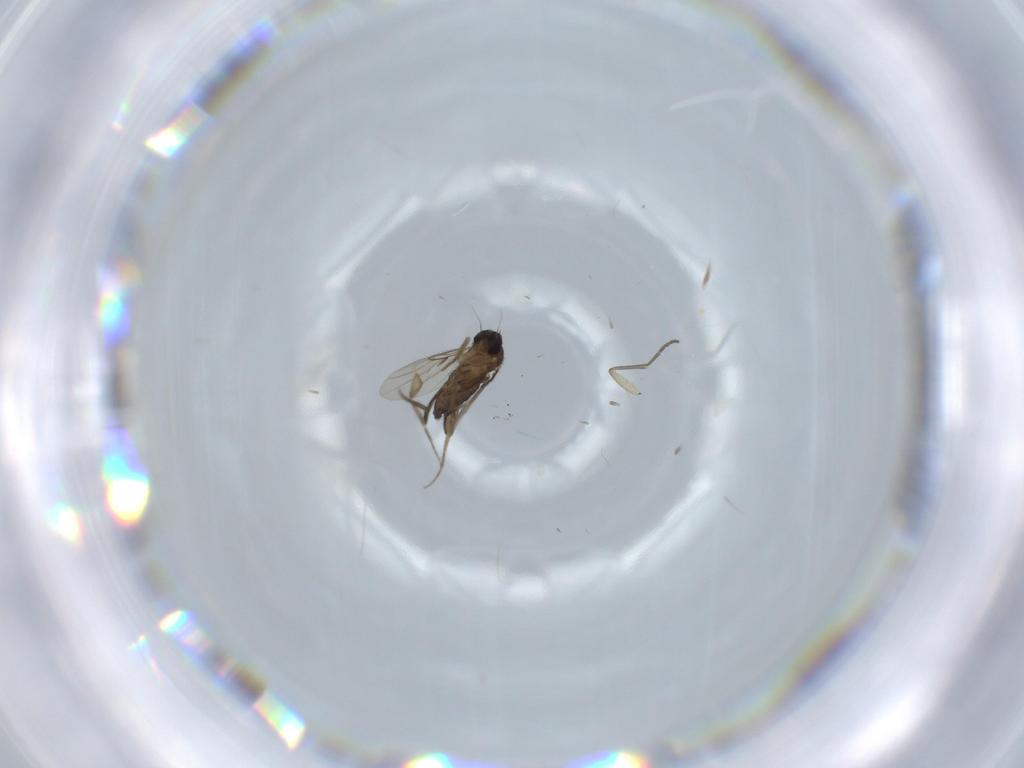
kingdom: Animalia
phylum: Arthropoda
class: Insecta
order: Diptera
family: Phoridae
